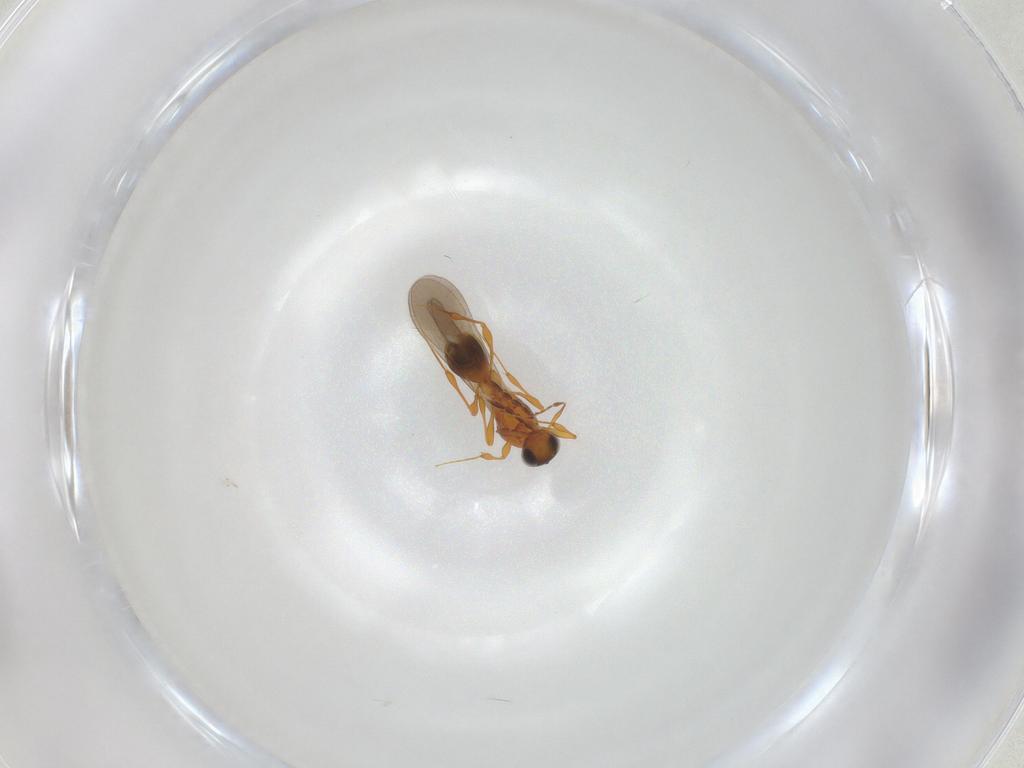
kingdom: Animalia
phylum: Arthropoda
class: Insecta
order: Hymenoptera
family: Platygastridae
